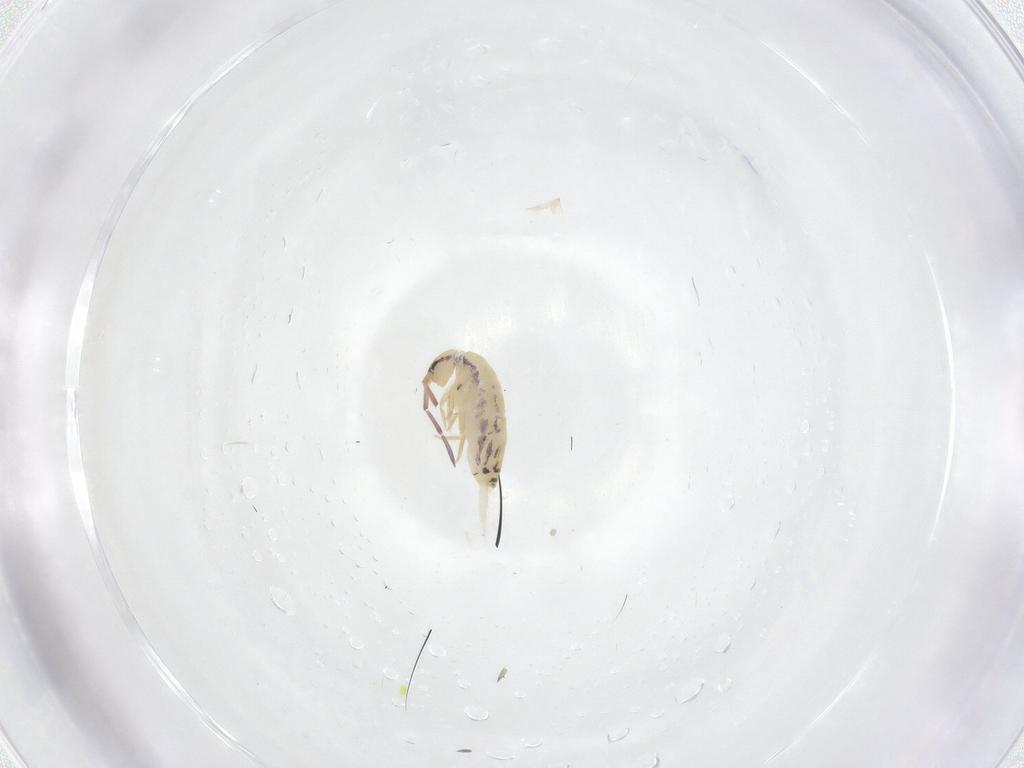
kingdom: Animalia
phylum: Arthropoda
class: Collembola
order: Entomobryomorpha
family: Entomobryidae
